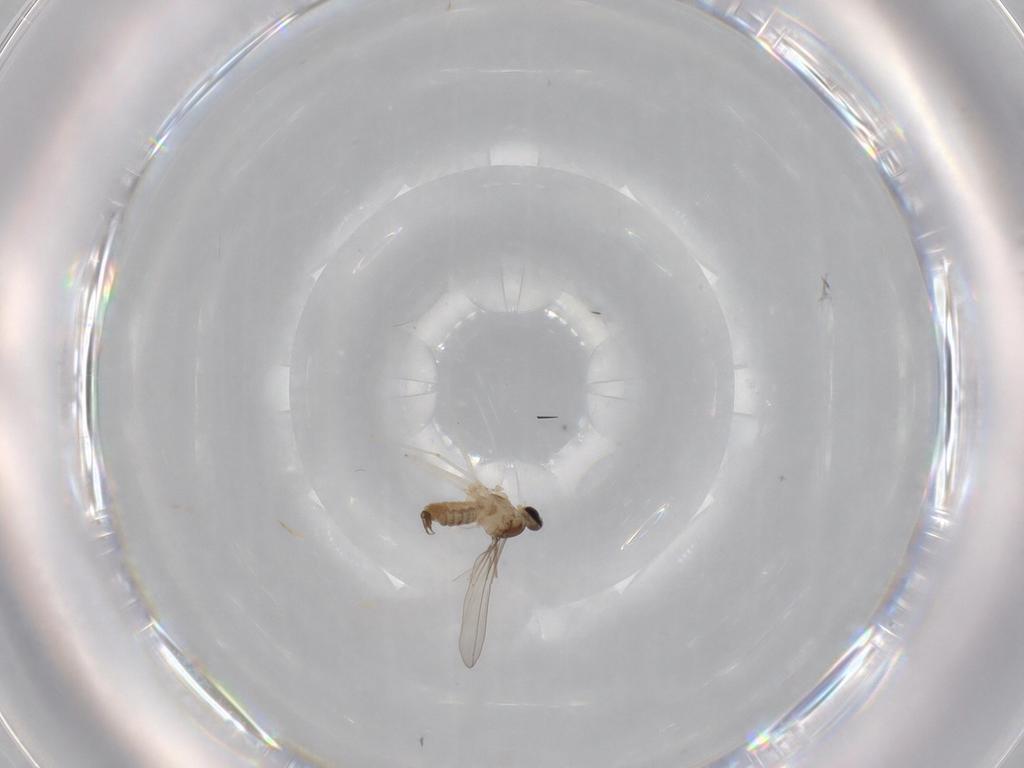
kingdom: Animalia
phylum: Arthropoda
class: Insecta
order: Diptera
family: Cecidomyiidae
